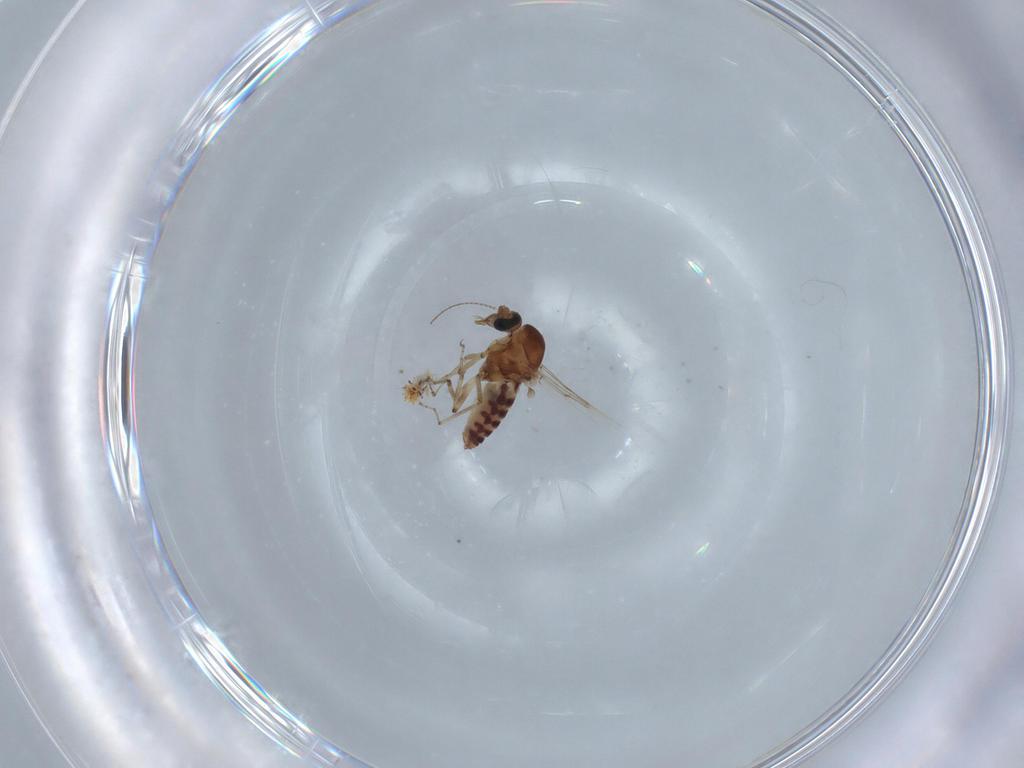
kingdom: Animalia
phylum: Arthropoda
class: Insecta
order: Diptera
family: Ceratopogonidae
